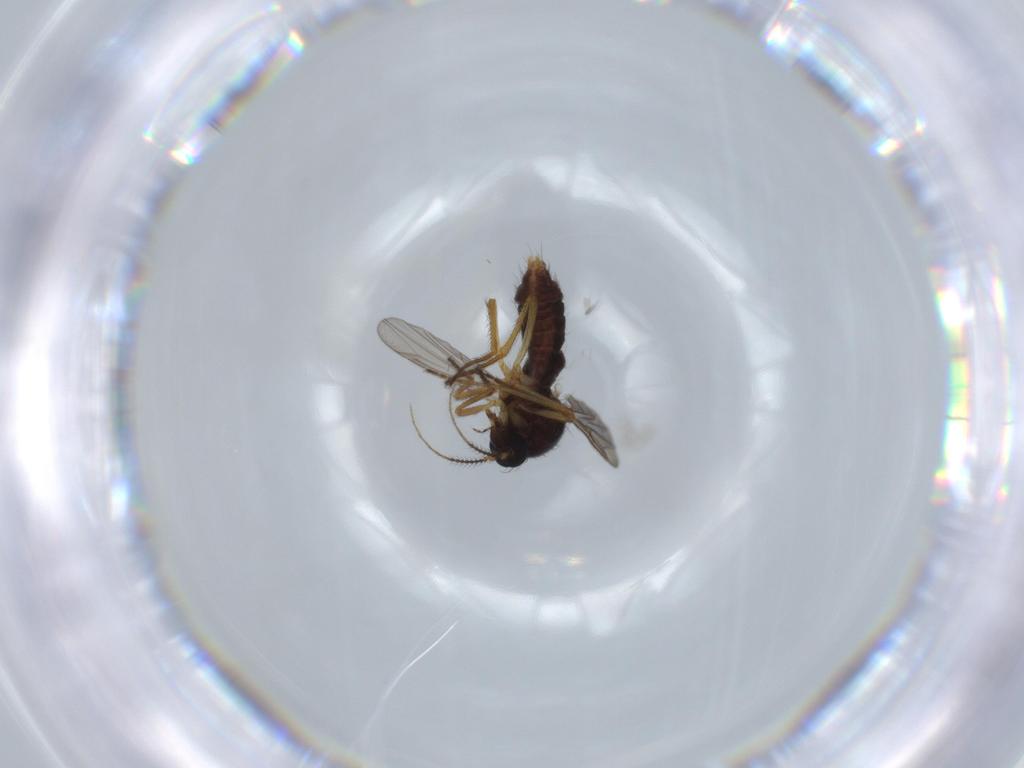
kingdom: Animalia
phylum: Arthropoda
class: Insecta
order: Diptera
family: Ceratopogonidae
